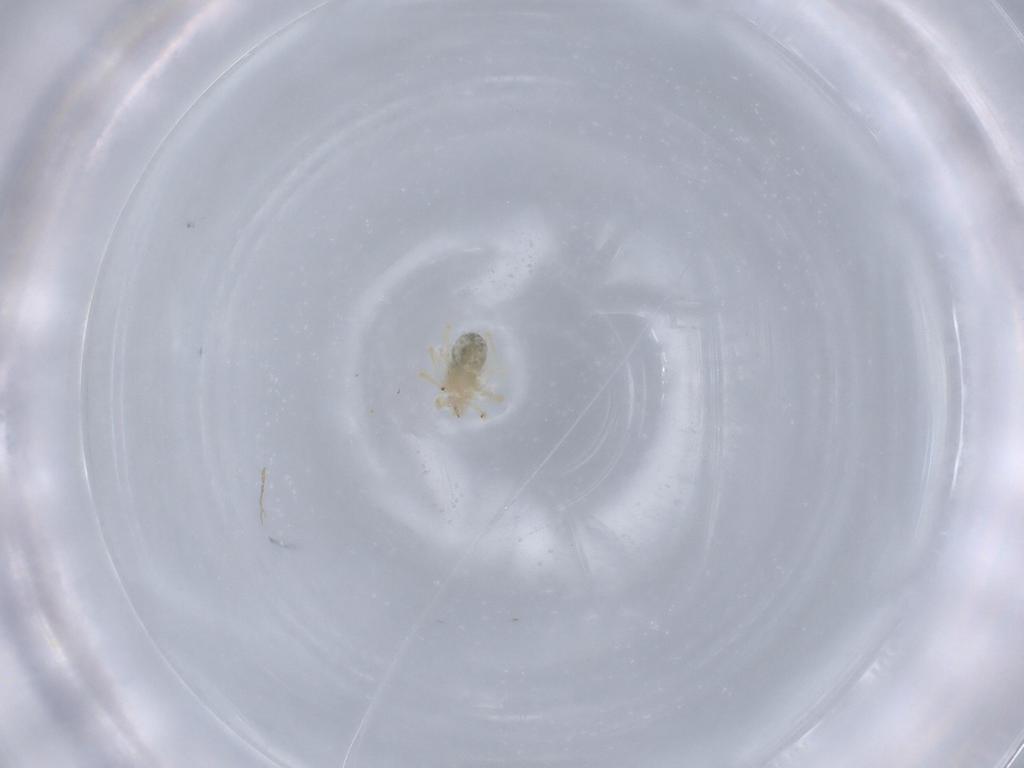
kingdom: Animalia
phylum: Arthropoda
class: Arachnida
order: Trombidiformes
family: Anystidae
